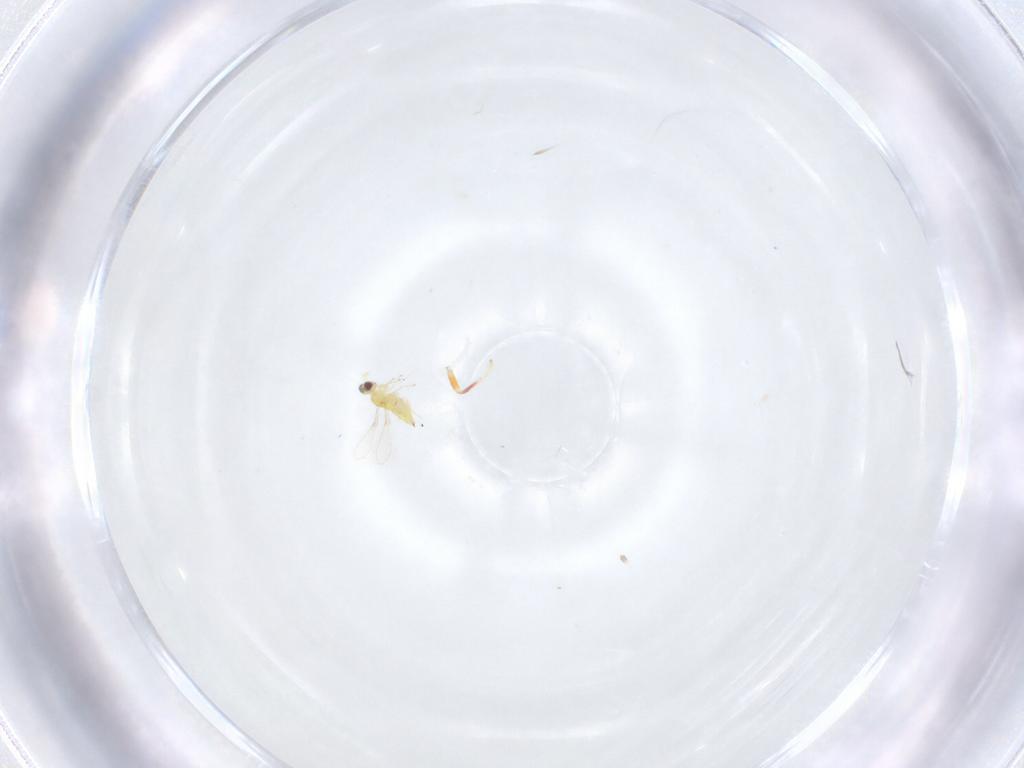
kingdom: Animalia
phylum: Arthropoda
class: Insecta
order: Hymenoptera
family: Mymaridae
